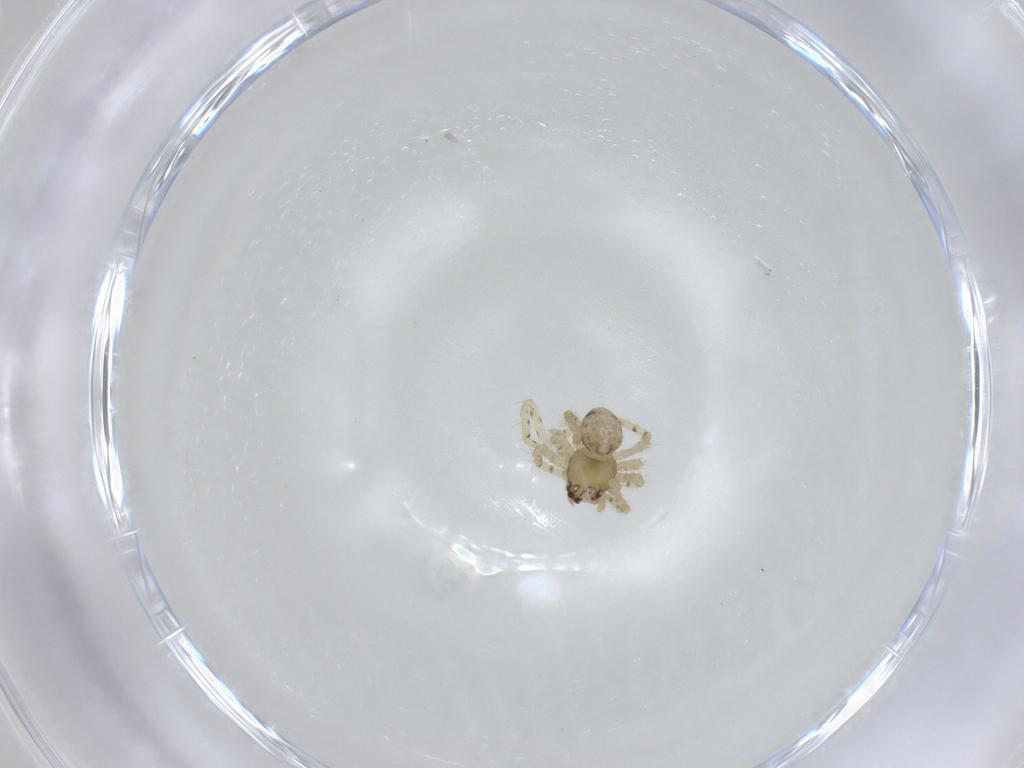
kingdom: Animalia
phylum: Arthropoda
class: Arachnida
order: Araneae
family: Theridiidae
